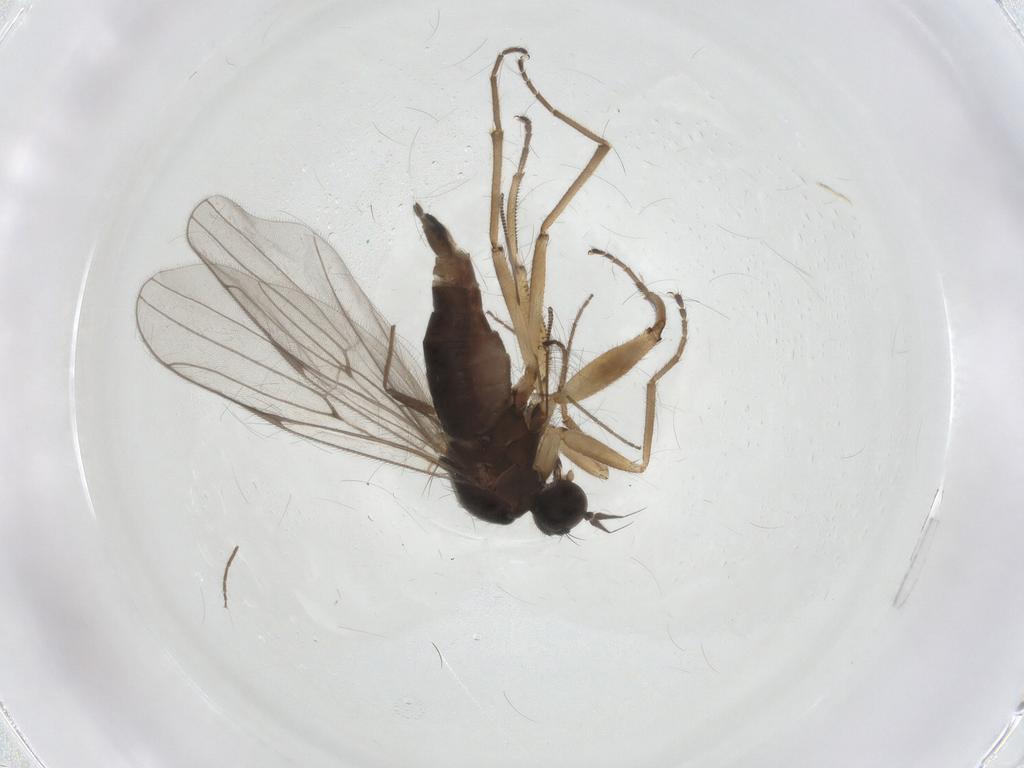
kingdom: Animalia
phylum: Arthropoda
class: Insecta
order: Diptera
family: Hybotidae
